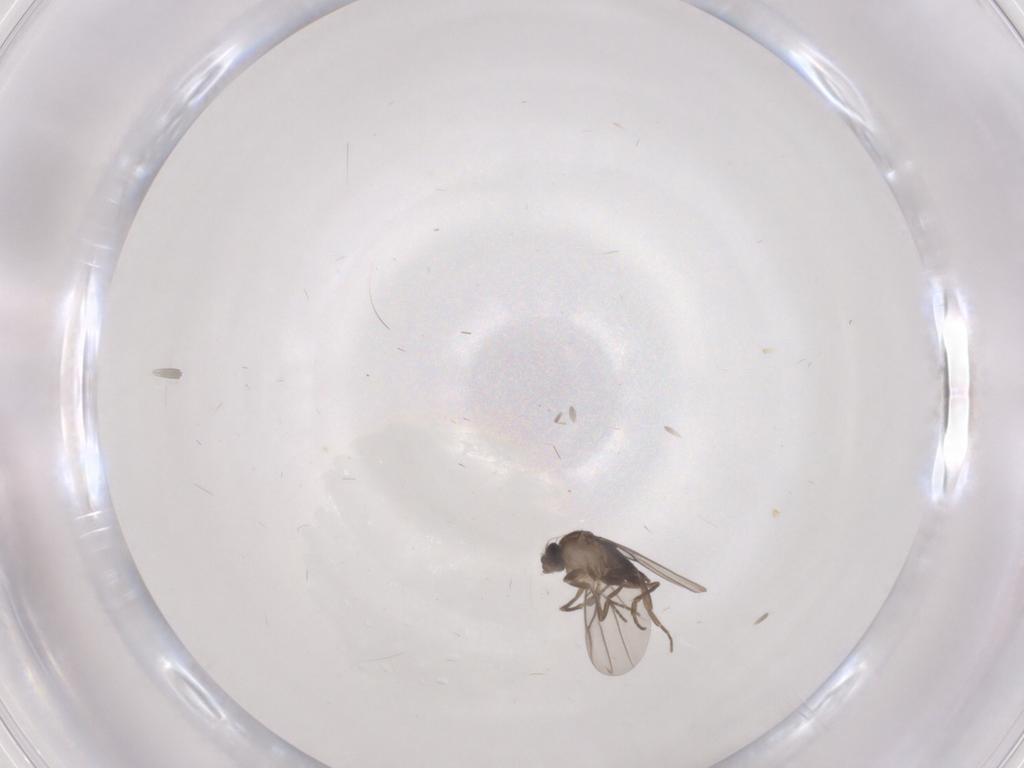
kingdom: Animalia
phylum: Arthropoda
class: Insecta
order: Diptera
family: Phoridae
